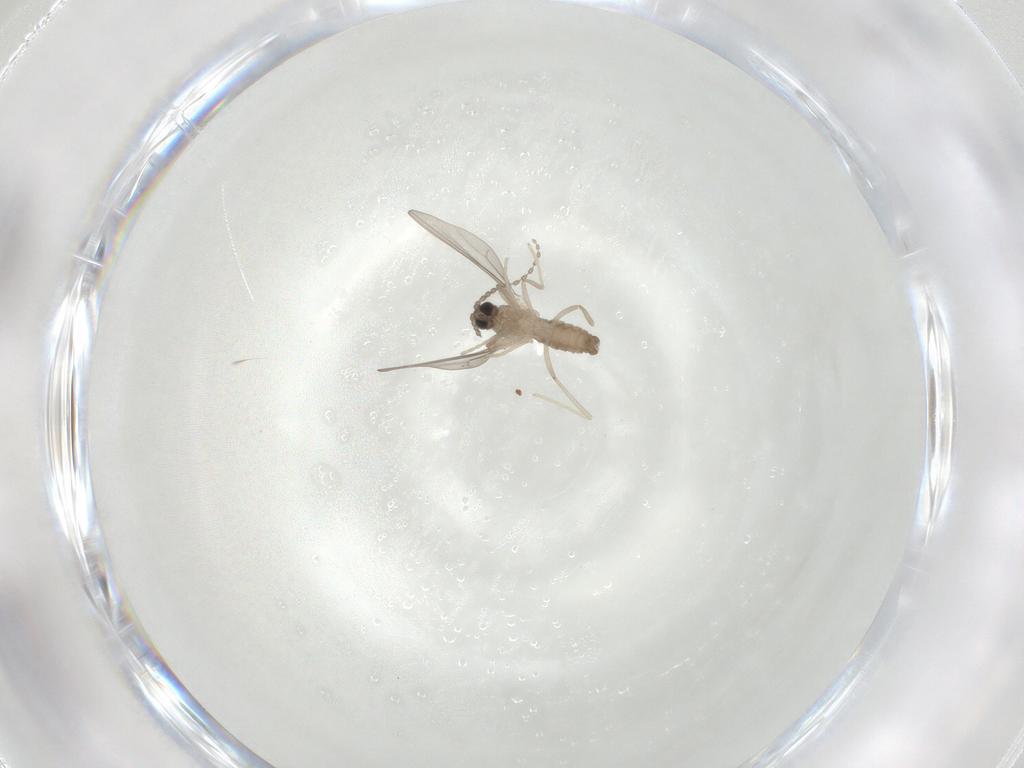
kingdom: Animalia
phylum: Arthropoda
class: Insecta
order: Diptera
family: Cecidomyiidae
